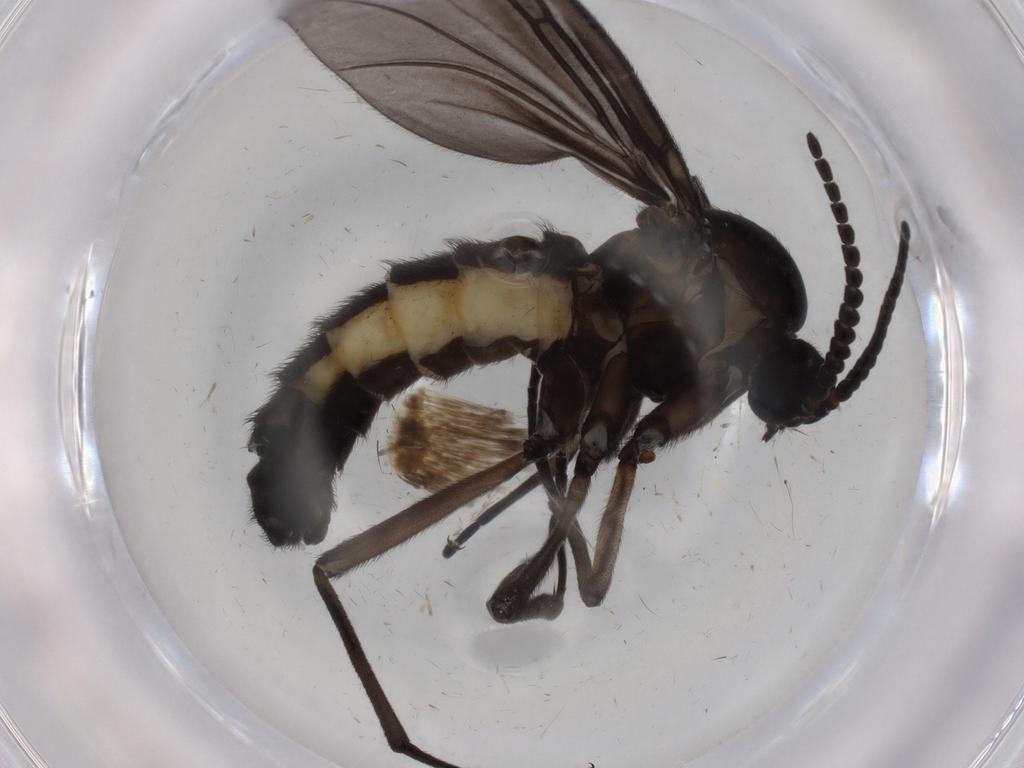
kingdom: Animalia
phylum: Arthropoda
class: Insecta
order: Diptera
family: Sciaridae
